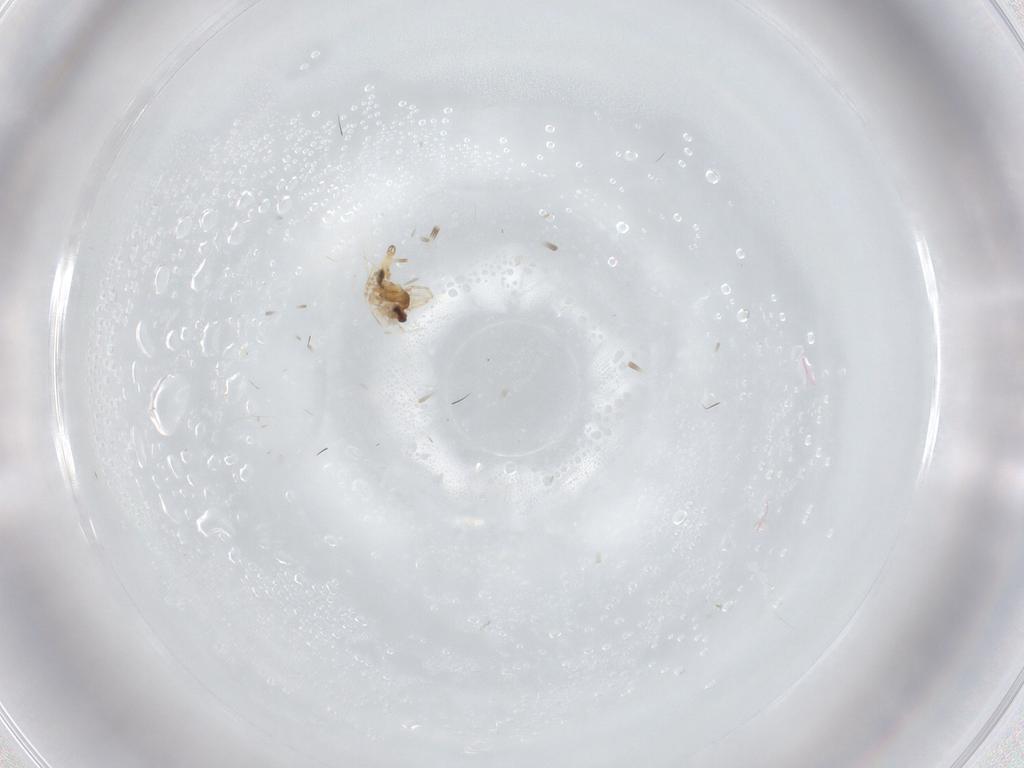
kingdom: Animalia
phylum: Arthropoda
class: Insecta
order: Diptera
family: Cecidomyiidae
